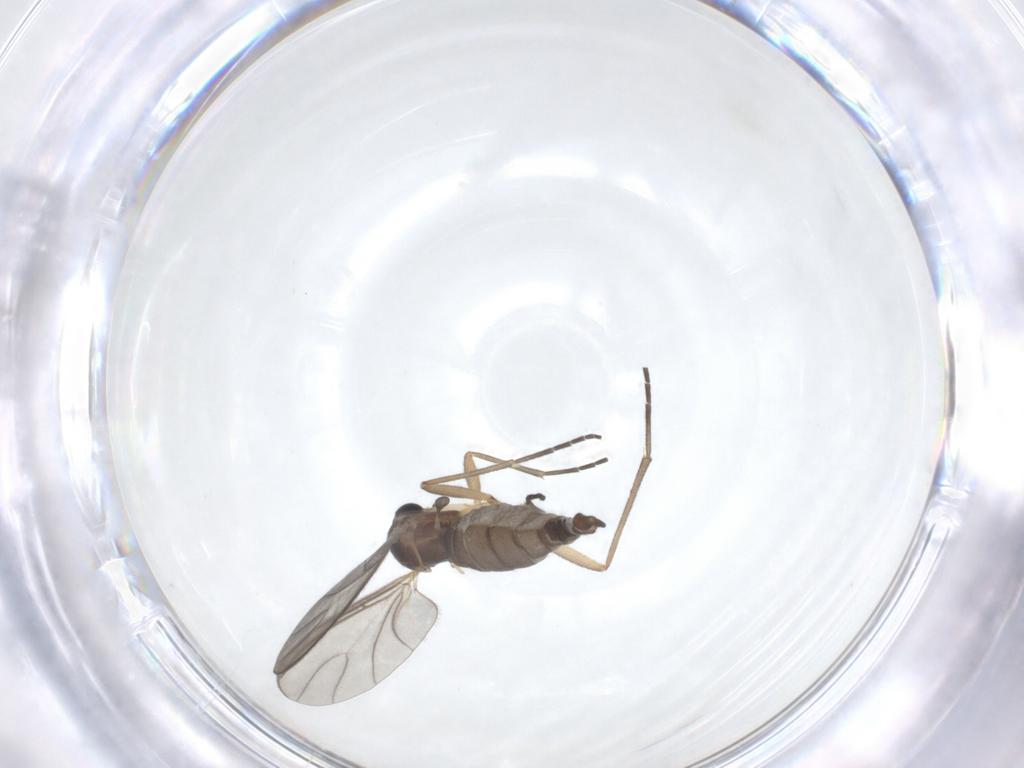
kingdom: Animalia
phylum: Arthropoda
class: Insecta
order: Diptera
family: Sciaridae
